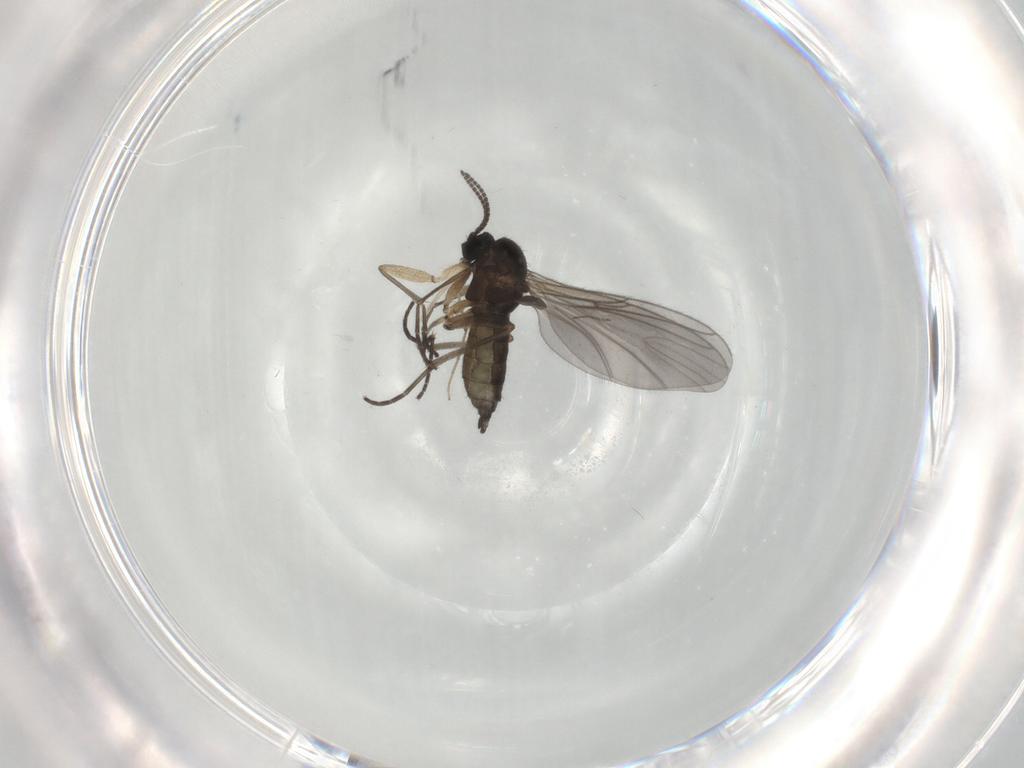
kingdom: Animalia
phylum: Arthropoda
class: Insecta
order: Diptera
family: Sciaridae
